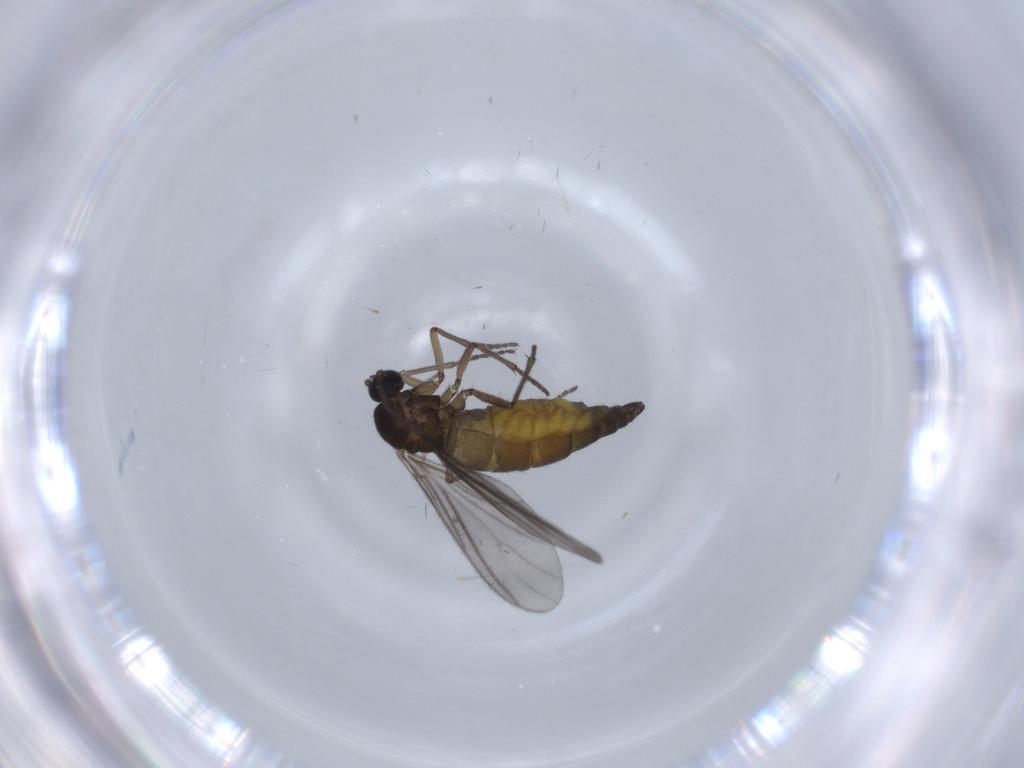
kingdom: Animalia
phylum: Arthropoda
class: Insecta
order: Diptera
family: Sciaridae
